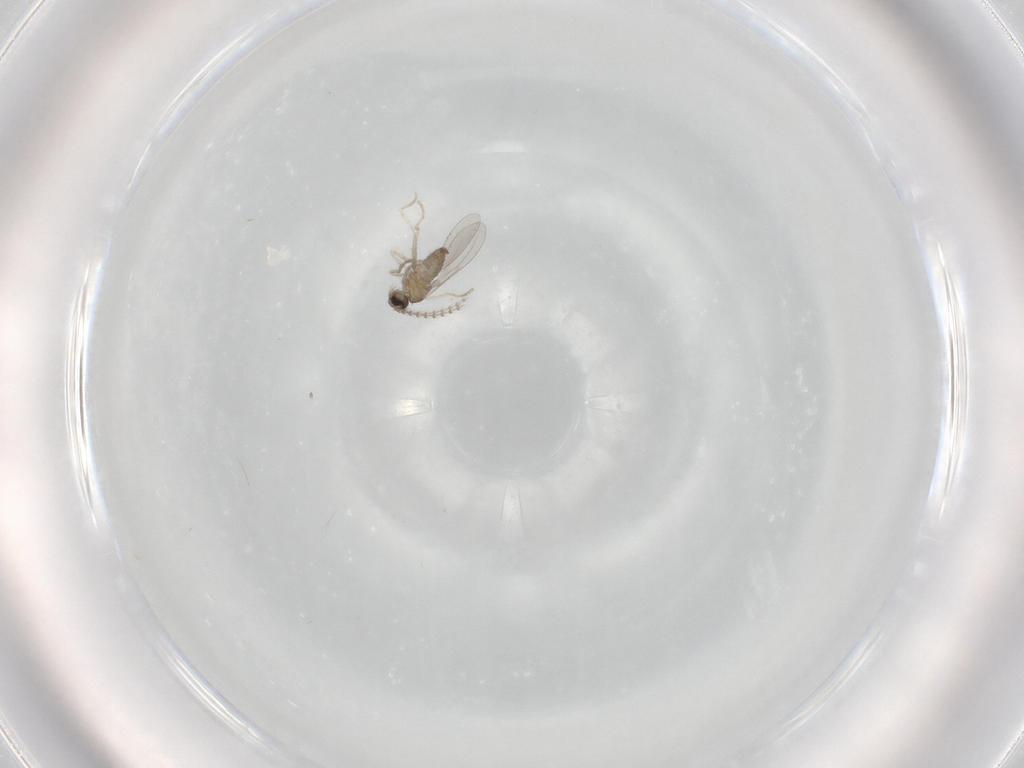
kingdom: Animalia
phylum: Arthropoda
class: Insecta
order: Diptera
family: Cecidomyiidae
